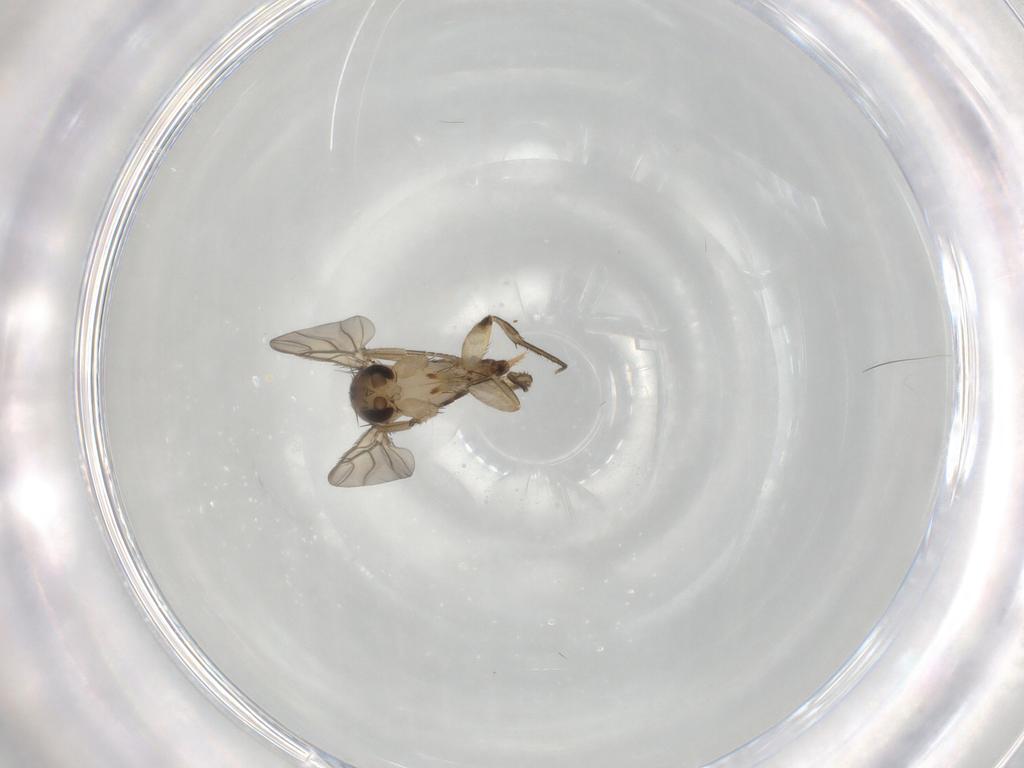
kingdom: Animalia
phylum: Arthropoda
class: Insecta
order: Diptera
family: Phoridae
